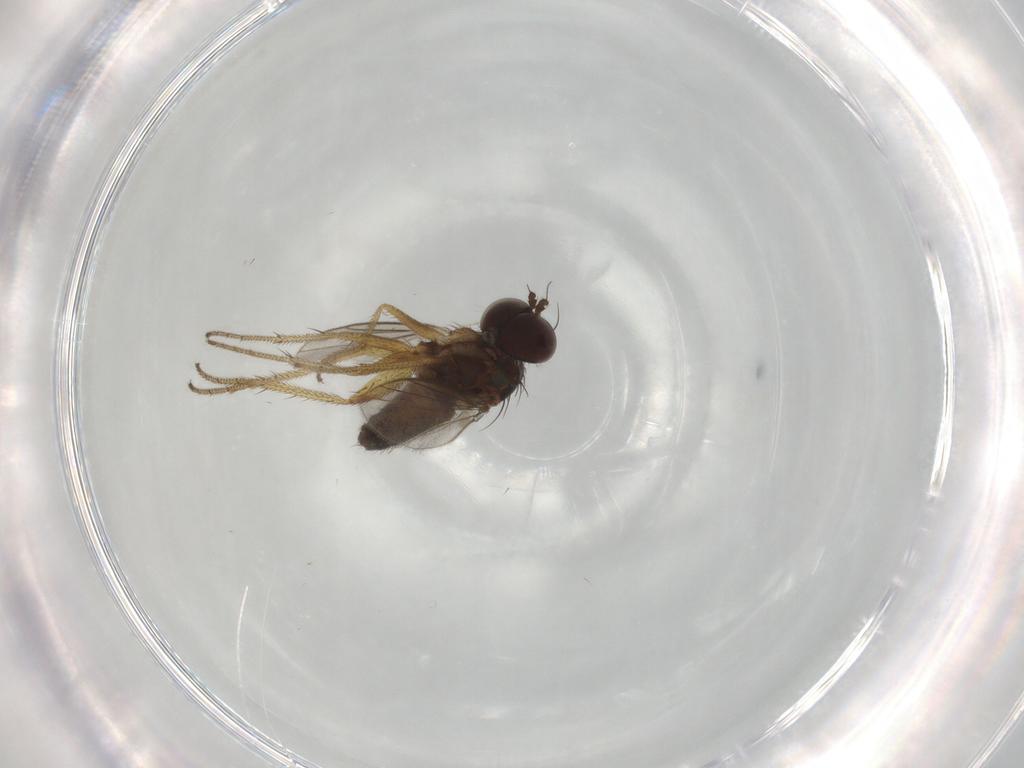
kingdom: Animalia
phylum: Arthropoda
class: Insecta
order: Diptera
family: Dolichopodidae
